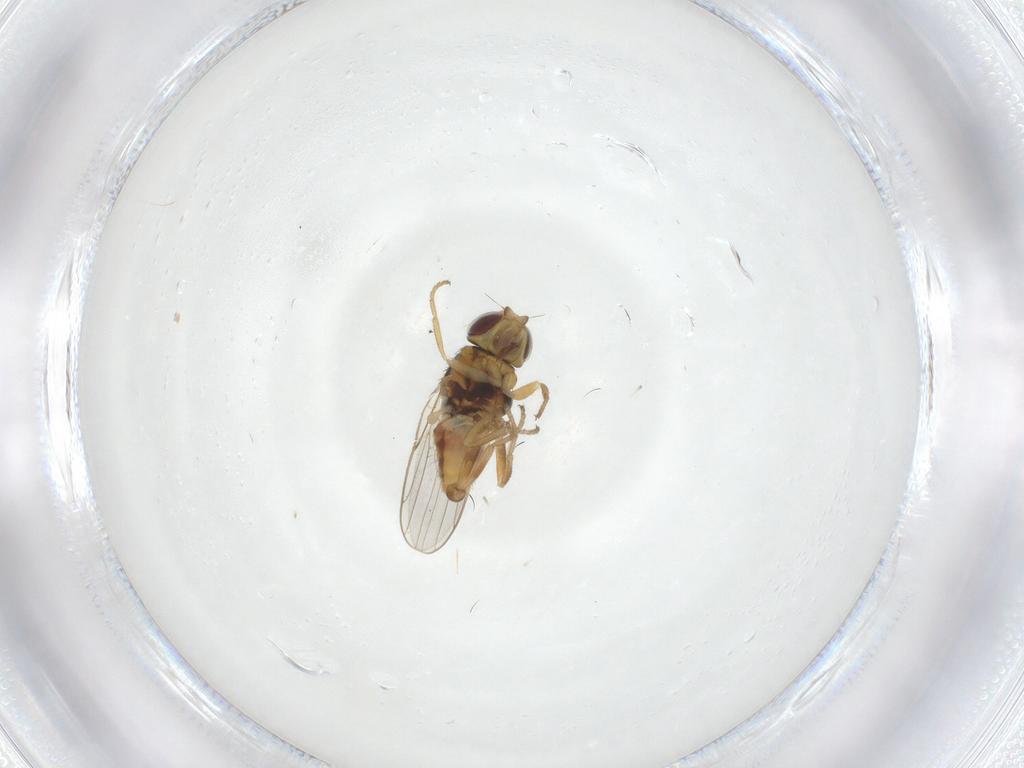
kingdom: Animalia
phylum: Arthropoda
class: Insecta
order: Diptera
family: Chloropidae
